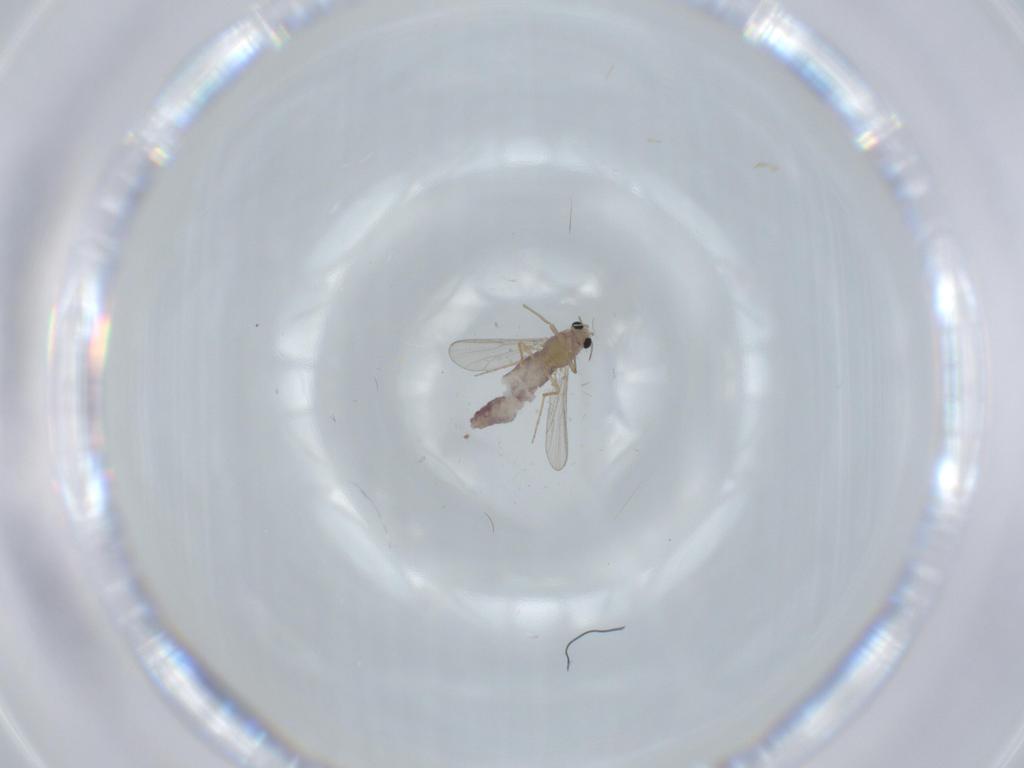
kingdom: Animalia
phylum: Arthropoda
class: Insecta
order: Diptera
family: Chironomidae
